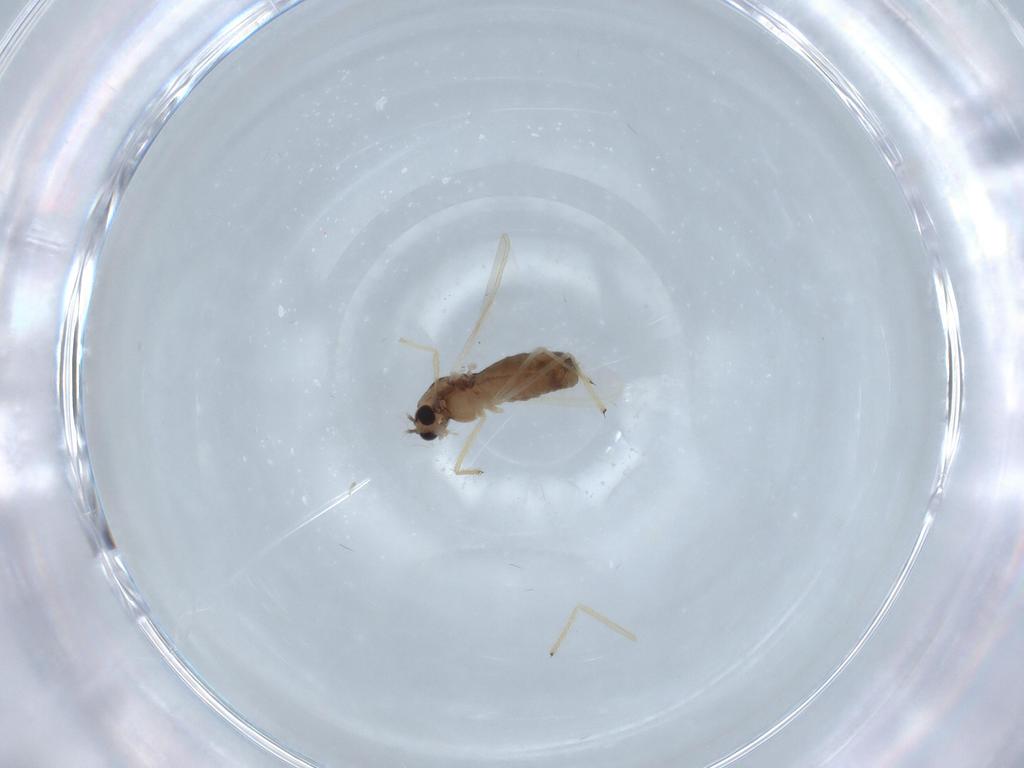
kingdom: Animalia
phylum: Arthropoda
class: Insecta
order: Diptera
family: Chironomidae
